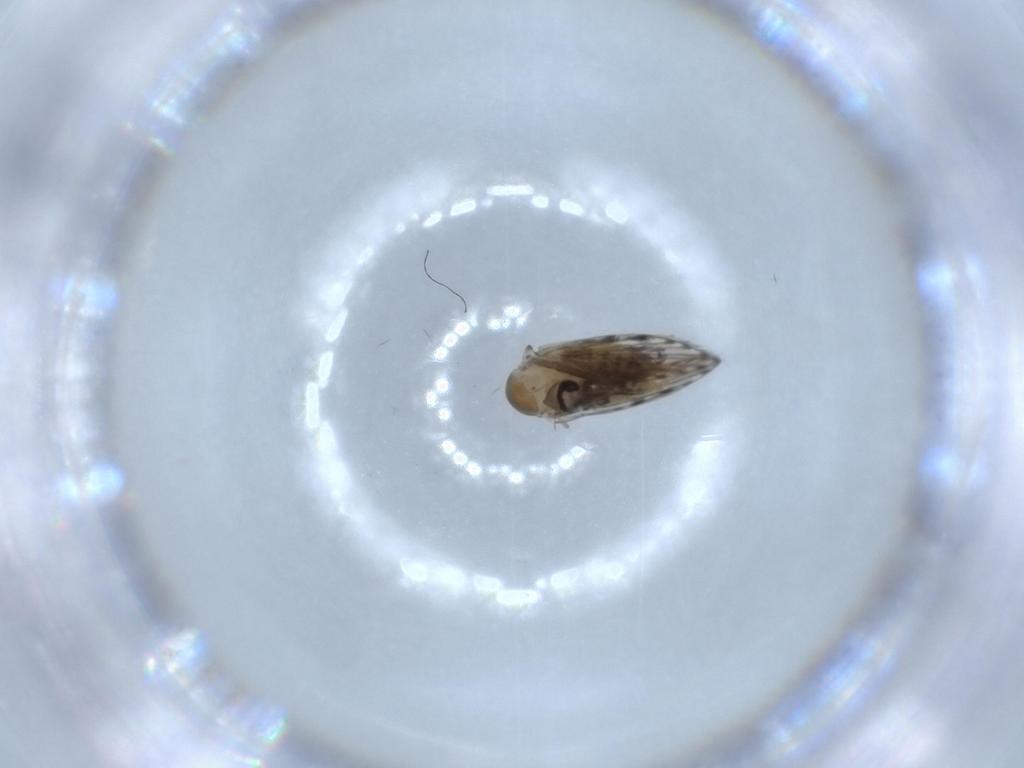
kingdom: Animalia
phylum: Arthropoda
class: Insecta
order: Diptera
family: Psychodidae
